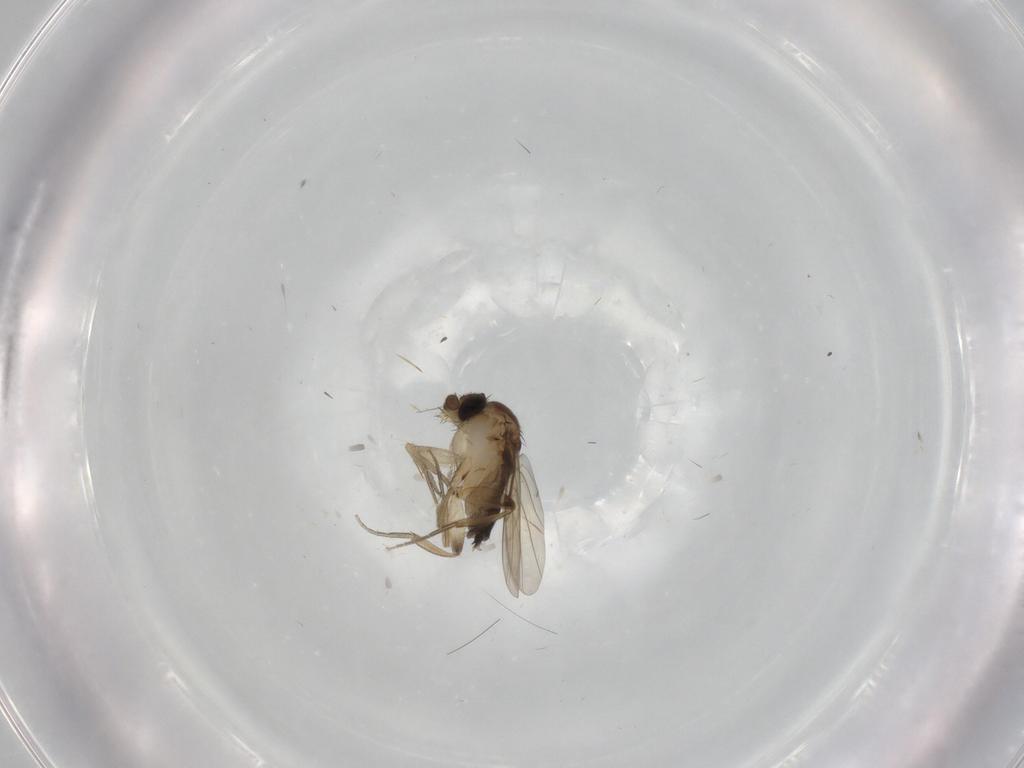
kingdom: Animalia
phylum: Arthropoda
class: Insecta
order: Diptera
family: Phoridae
